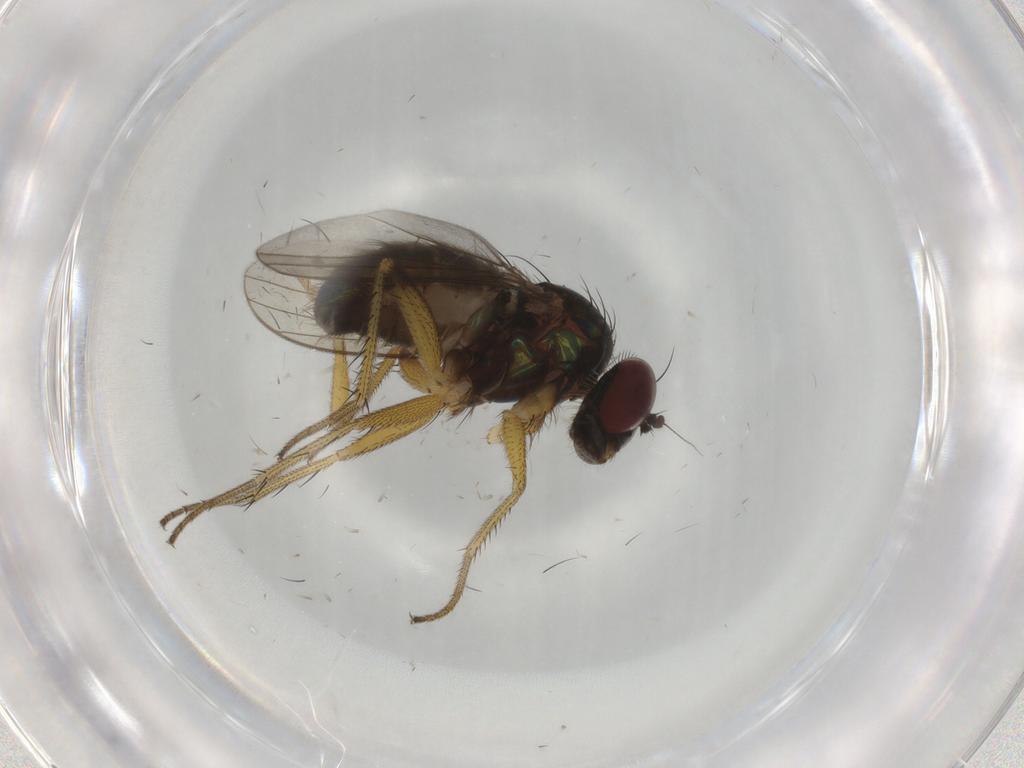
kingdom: Animalia
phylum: Arthropoda
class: Insecta
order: Diptera
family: Dolichopodidae
